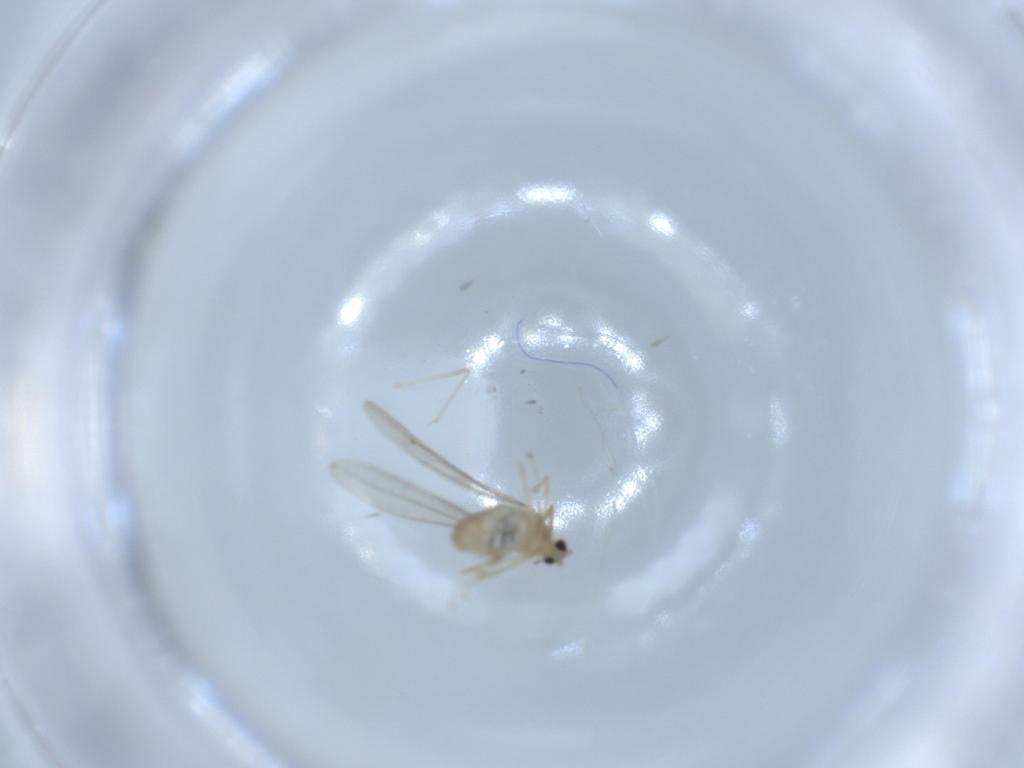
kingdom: Animalia
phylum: Arthropoda
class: Insecta
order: Diptera
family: Cecidomyiidae
